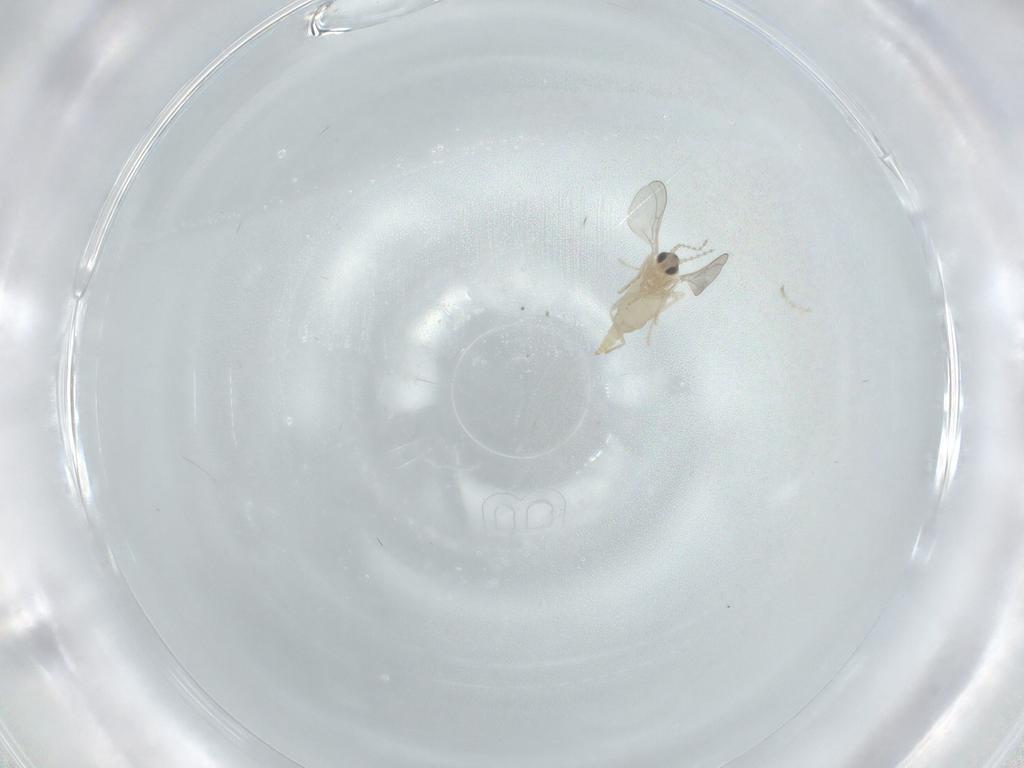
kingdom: Animalia
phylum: Arthropoda
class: Insecta
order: Diptera
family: Cecidomyiidae
